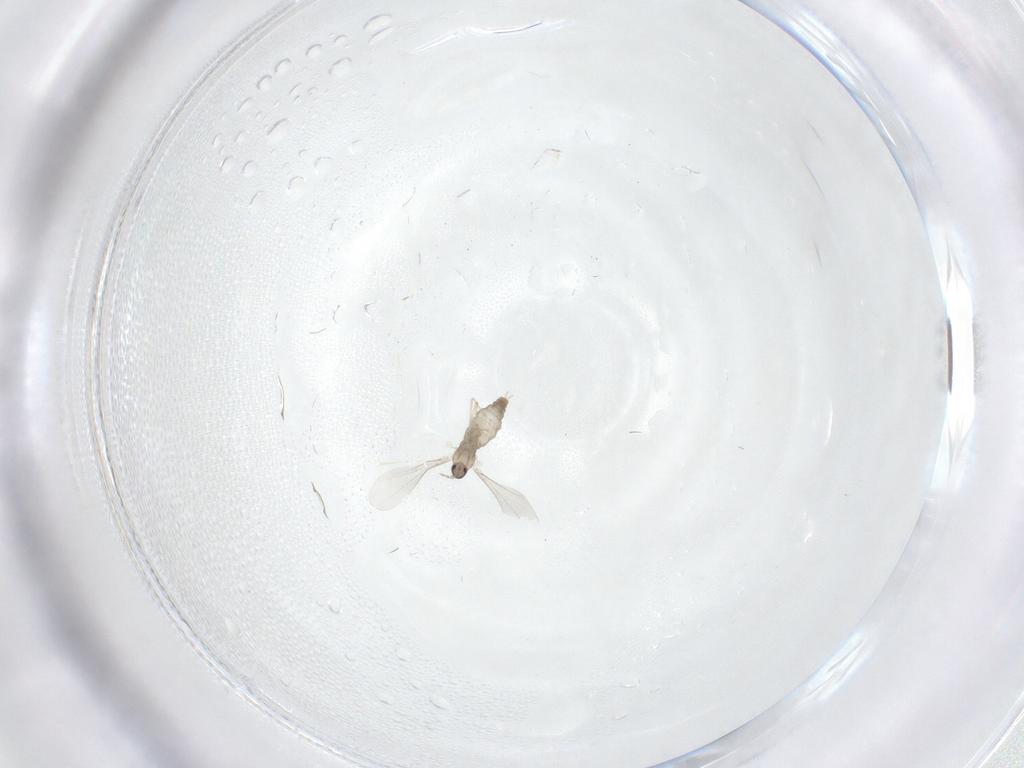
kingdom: Animalia
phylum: Arthropoda
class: Insecta
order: Diptera
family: Cecidomyiidae
